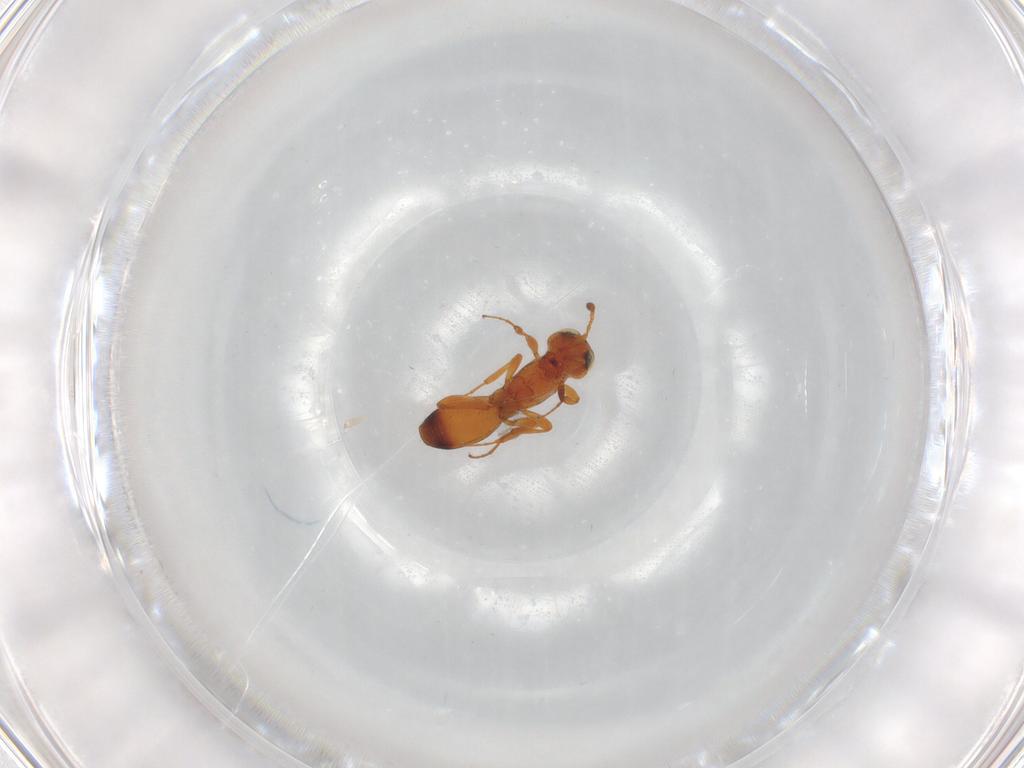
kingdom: Animalia
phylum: Arthropoda
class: Insecta
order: Hymenoptera
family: Platygastridae
